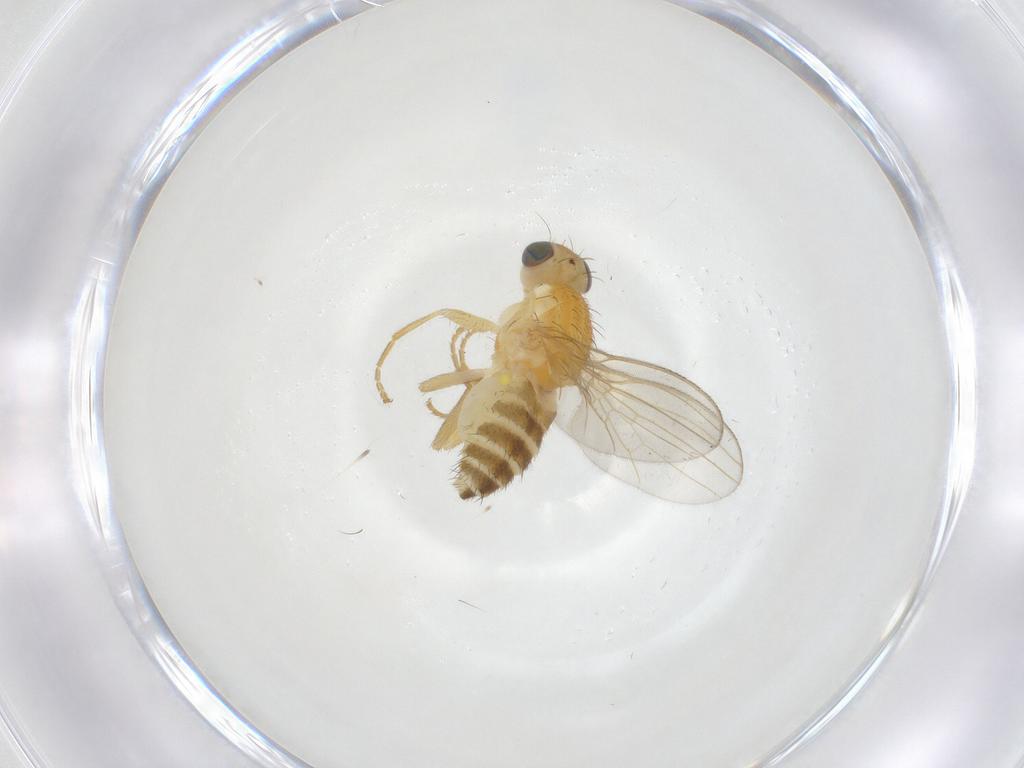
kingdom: Animalia
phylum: Arthropoda
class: Insecta
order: Diptera
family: Chyromyidae
